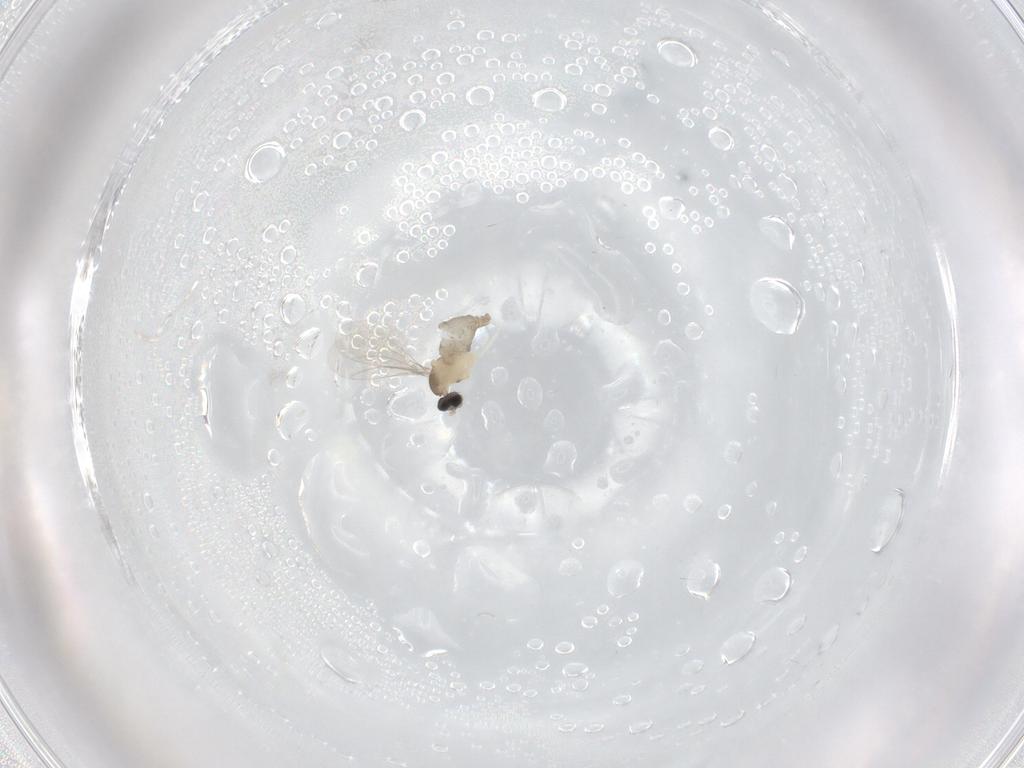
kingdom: Animalia
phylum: Arthropoda
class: Insecta
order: Diptera
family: Cecidomyiidae
